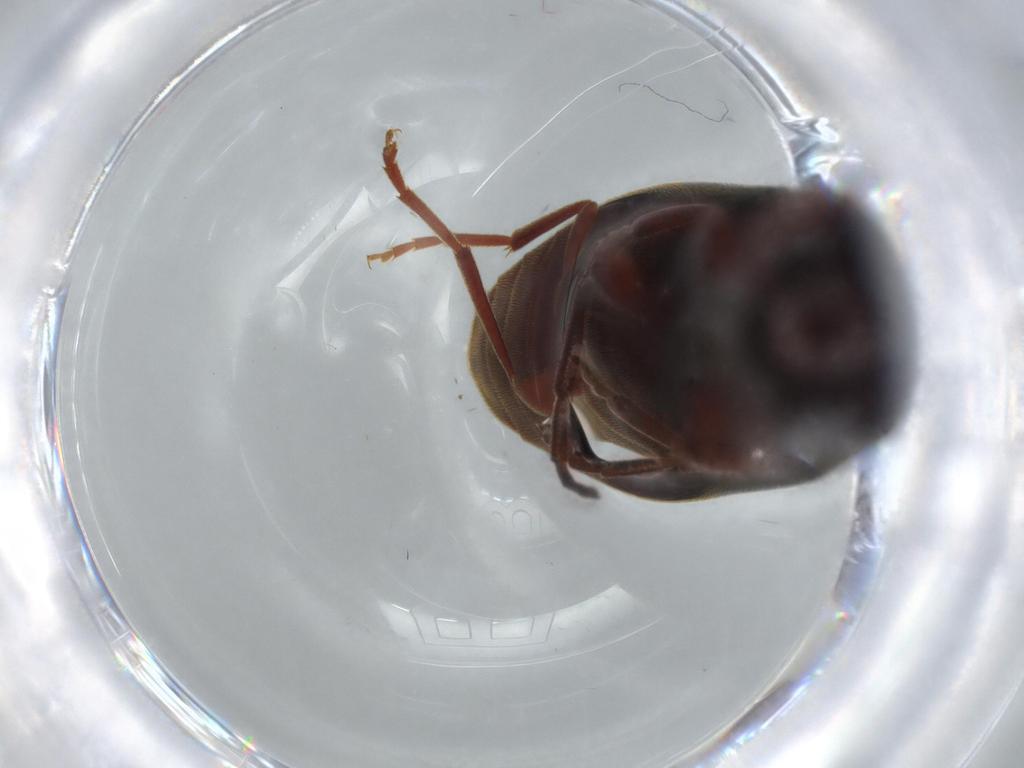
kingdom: Animalia
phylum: Arthropoda
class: Insecta
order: Coleoptera
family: Eucnemidae
